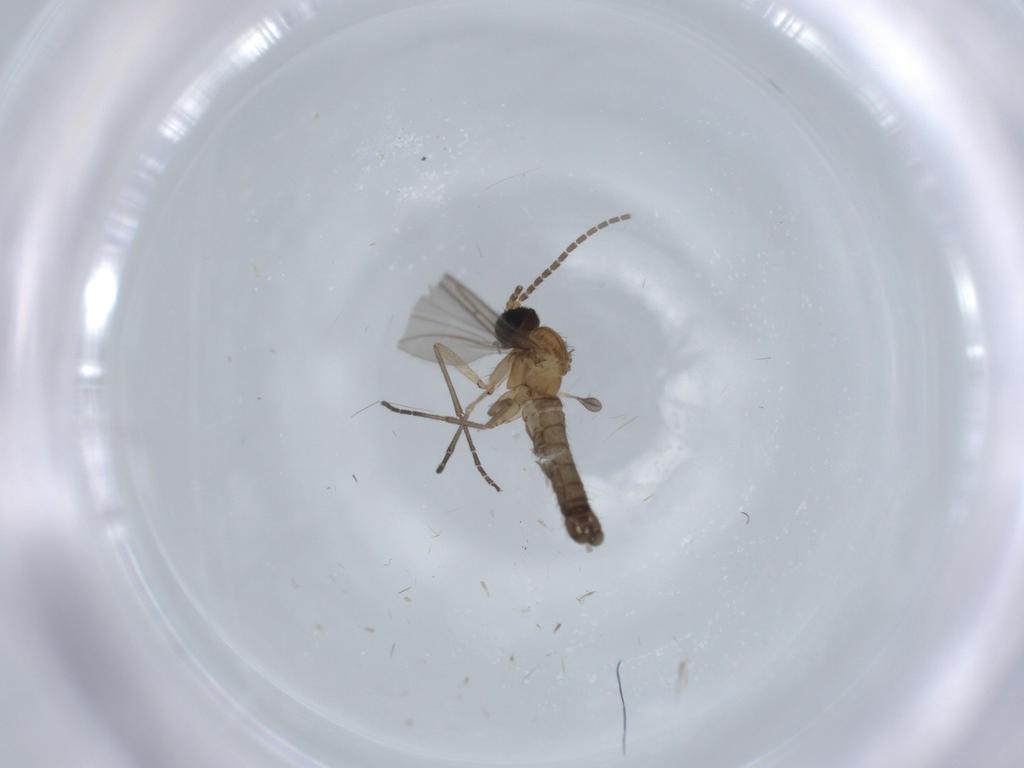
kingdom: Animalia
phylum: Arthropoda
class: Insecta
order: Diptera
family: Sciaridae
